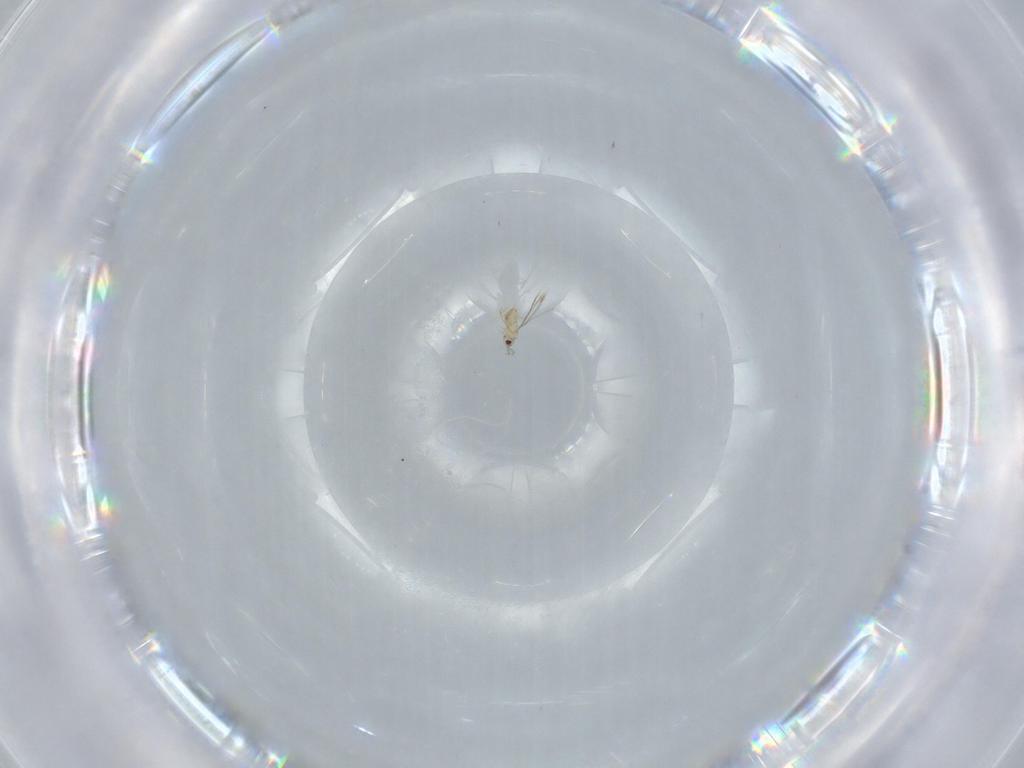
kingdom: Animalia
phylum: Arthropoda
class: Insecta
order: Hymenoptera
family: Mymaridae
